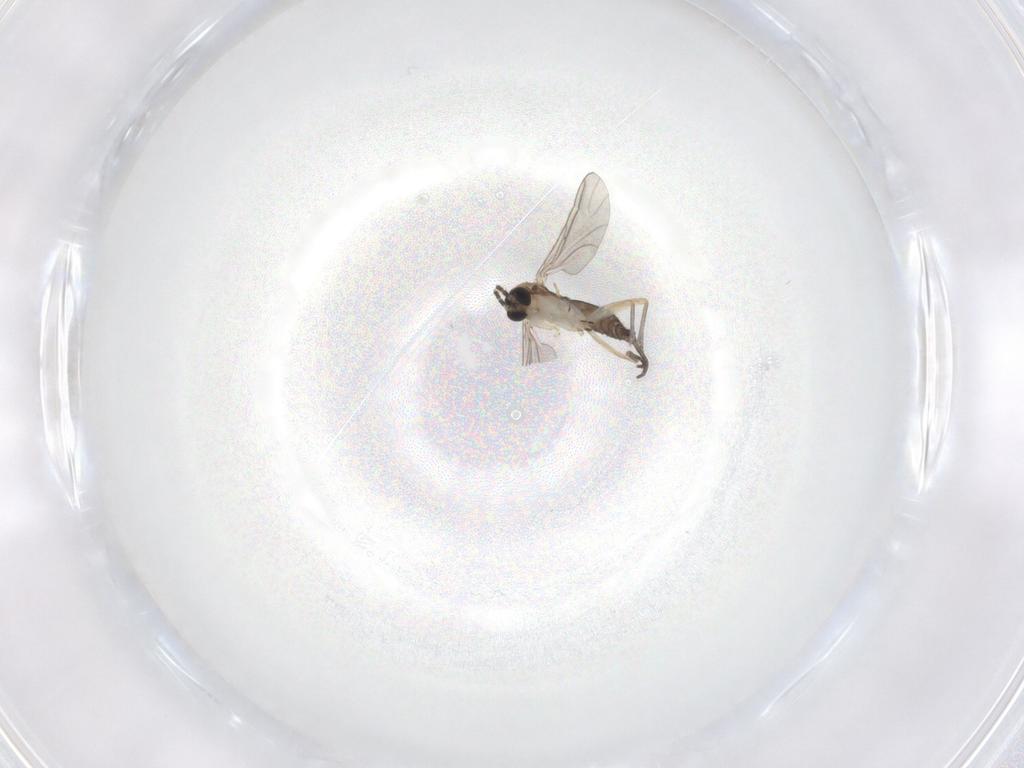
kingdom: Animalia
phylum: Arthropoda
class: Insecta
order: Diptera
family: Sciaridae
